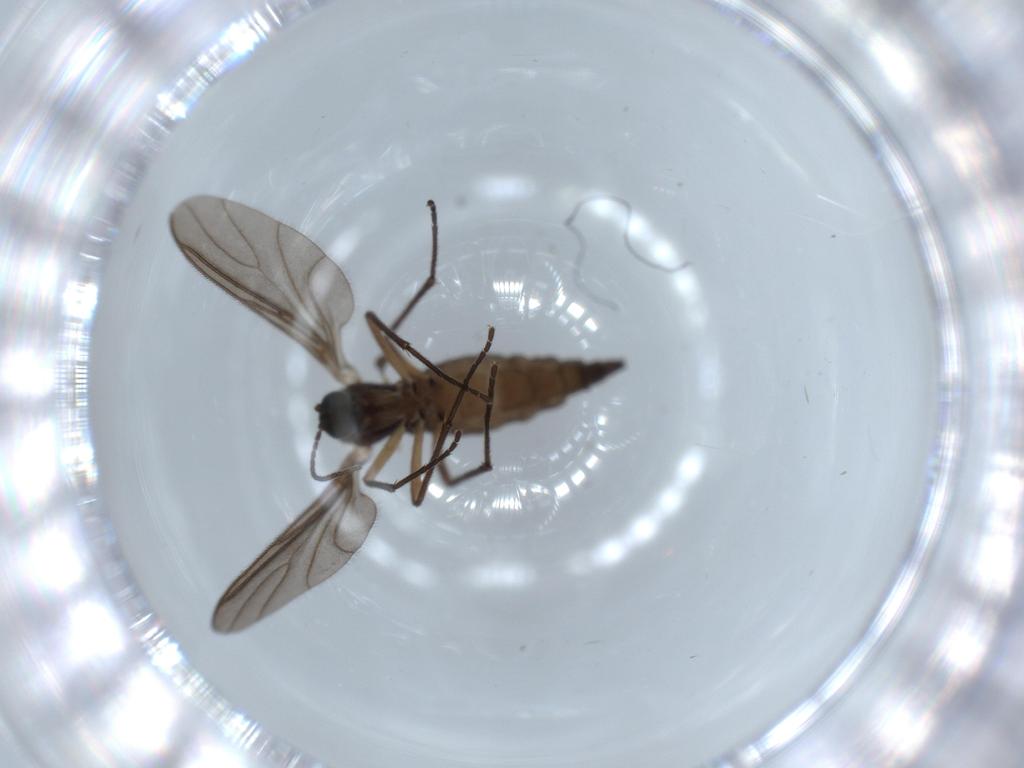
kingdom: Animalia
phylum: Arthropoda
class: Insecta
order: Diptera
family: Sciaridae
